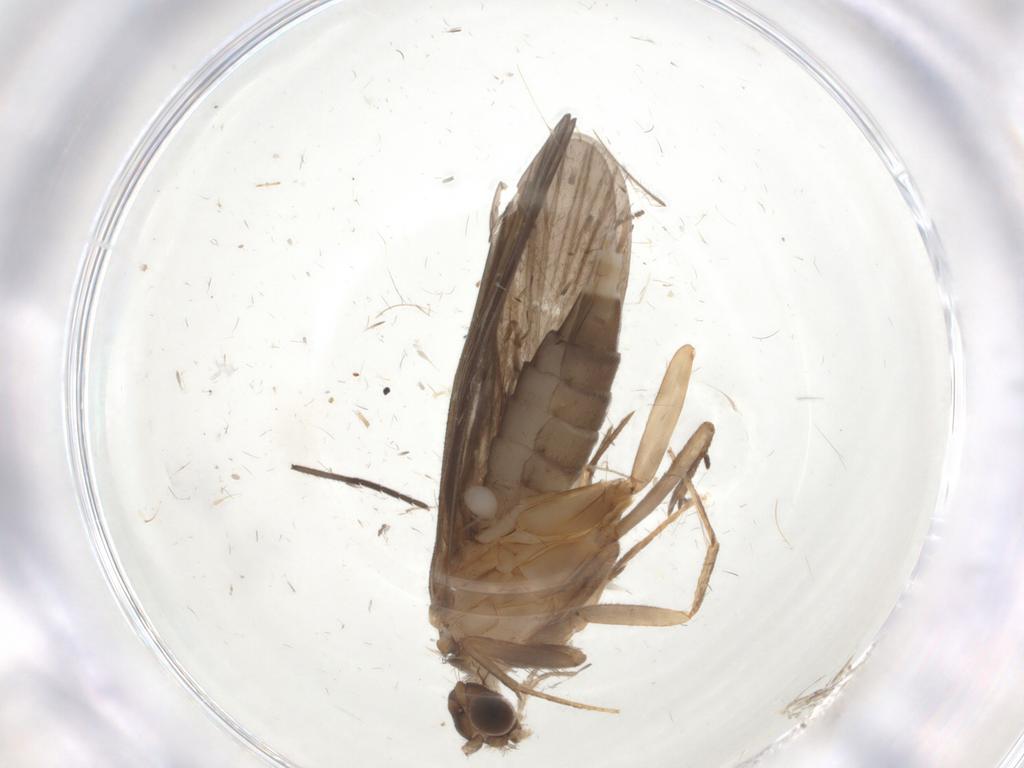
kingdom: Animalia
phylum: Arthropoda
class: Insecta
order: Trichoptera
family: Philopotamidae
